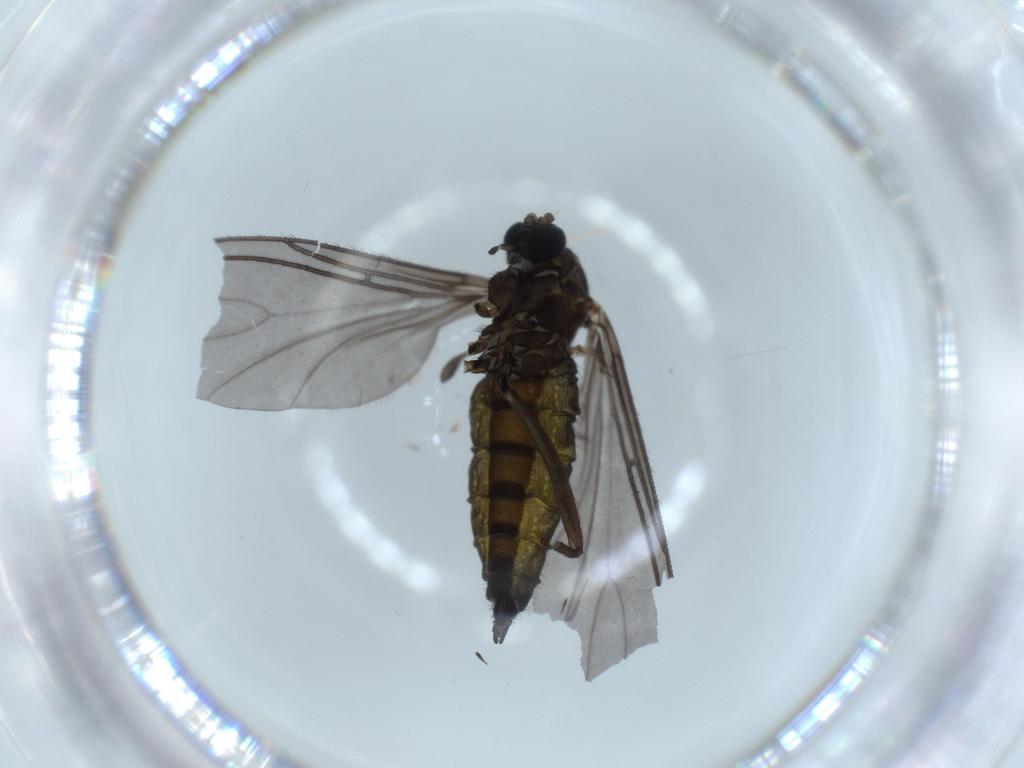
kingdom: Animalia
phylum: Arthropoda
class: Insecta
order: Diptera
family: Sciaridae
